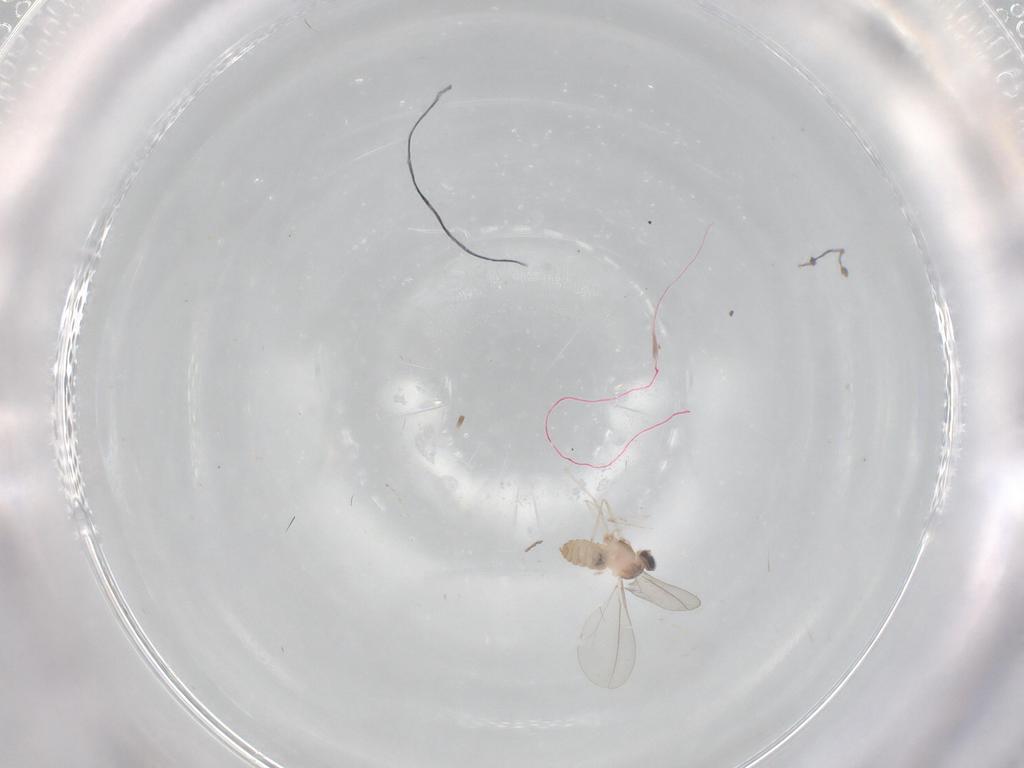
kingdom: Animalia
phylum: Arthropoda
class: Insecta
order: Diptera
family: Cecidomyiidae
